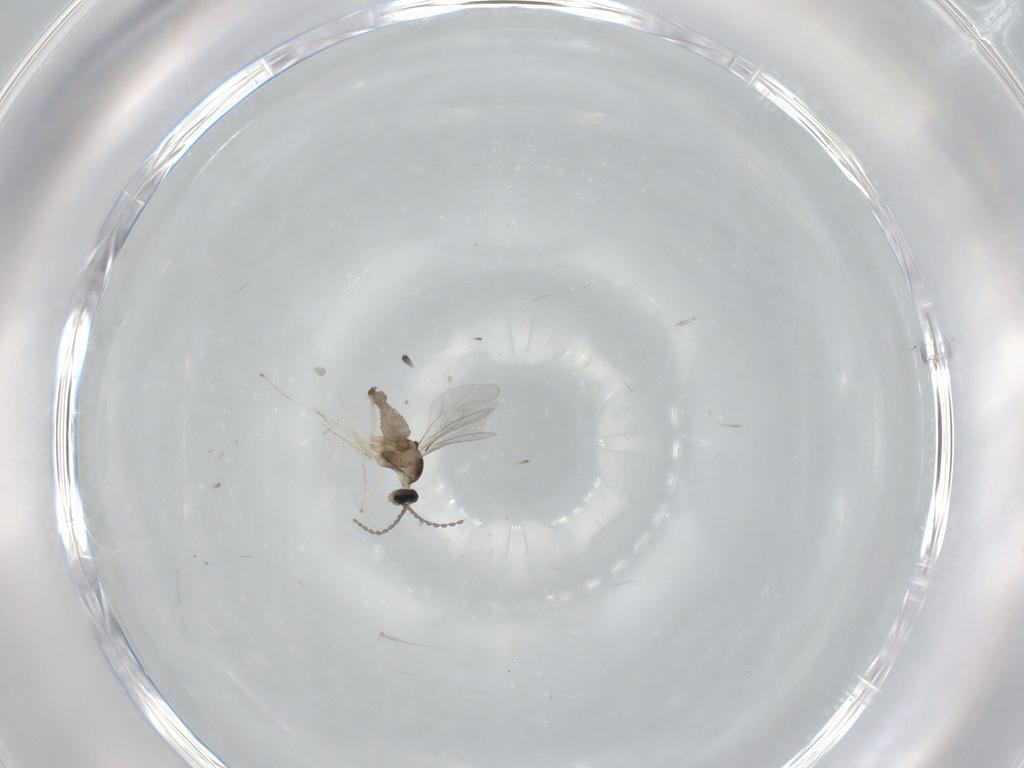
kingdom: Animalia
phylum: Arthropoda
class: Insecta
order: Diptera
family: Cecidomyiidae
